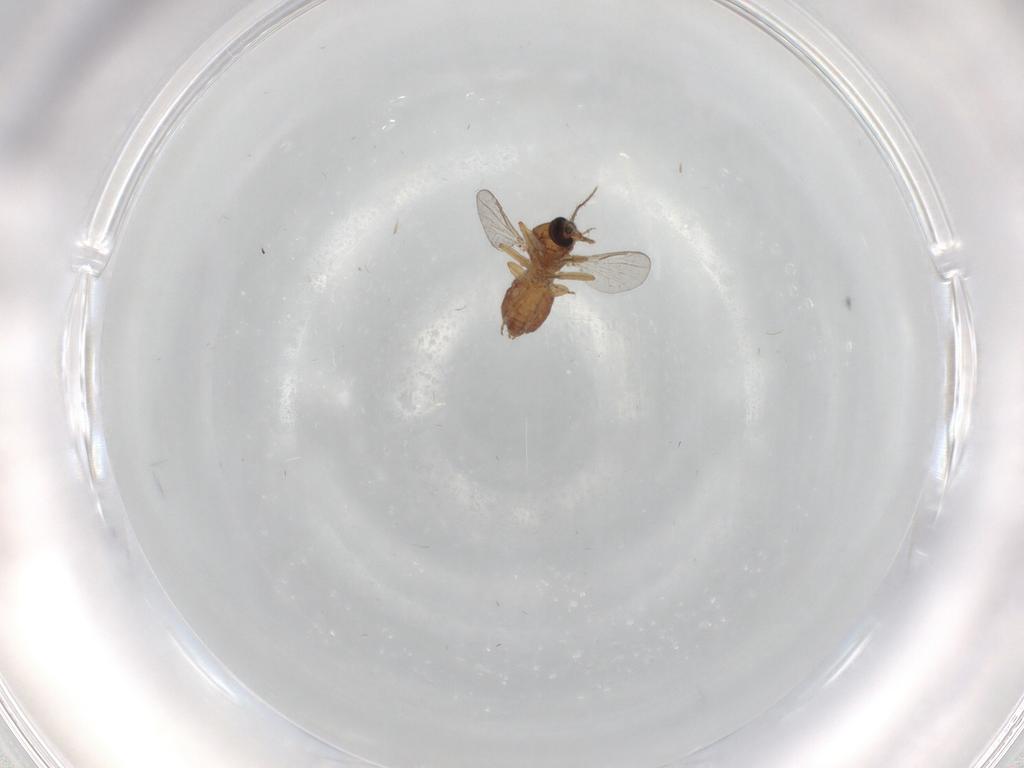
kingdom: Animalia
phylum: Arthropoda
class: Insecta
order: Diptera
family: Ceratopogonidae
